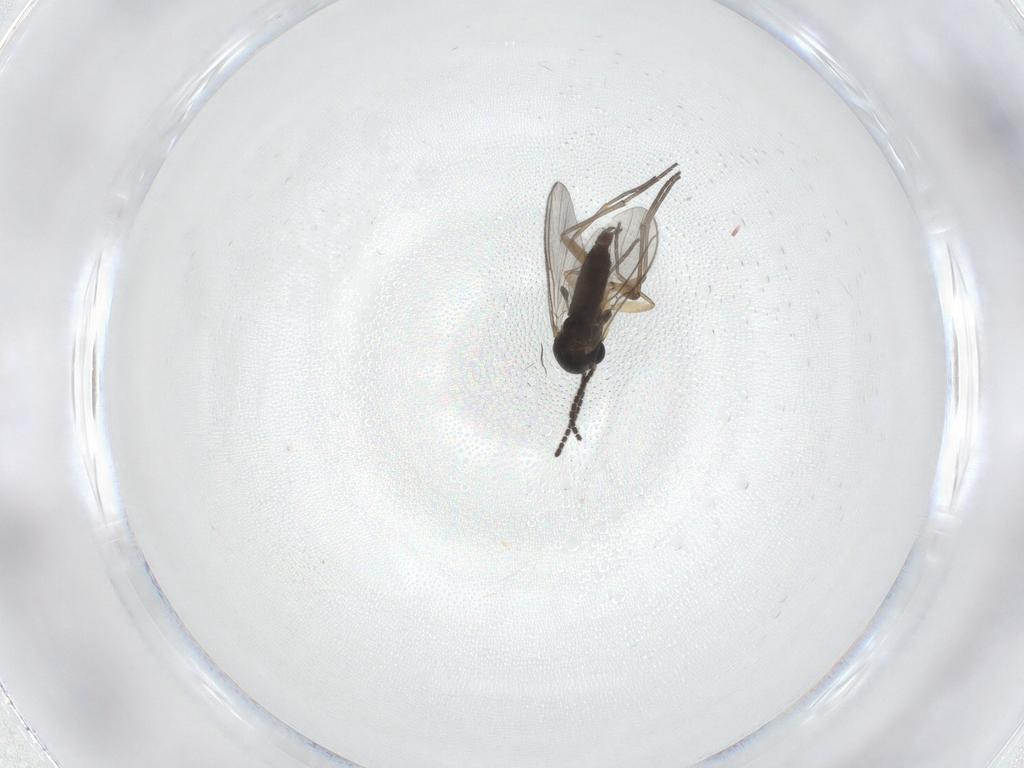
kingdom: Animalia
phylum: Arthropoda
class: Insecta
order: Diptera
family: Sciaridae
